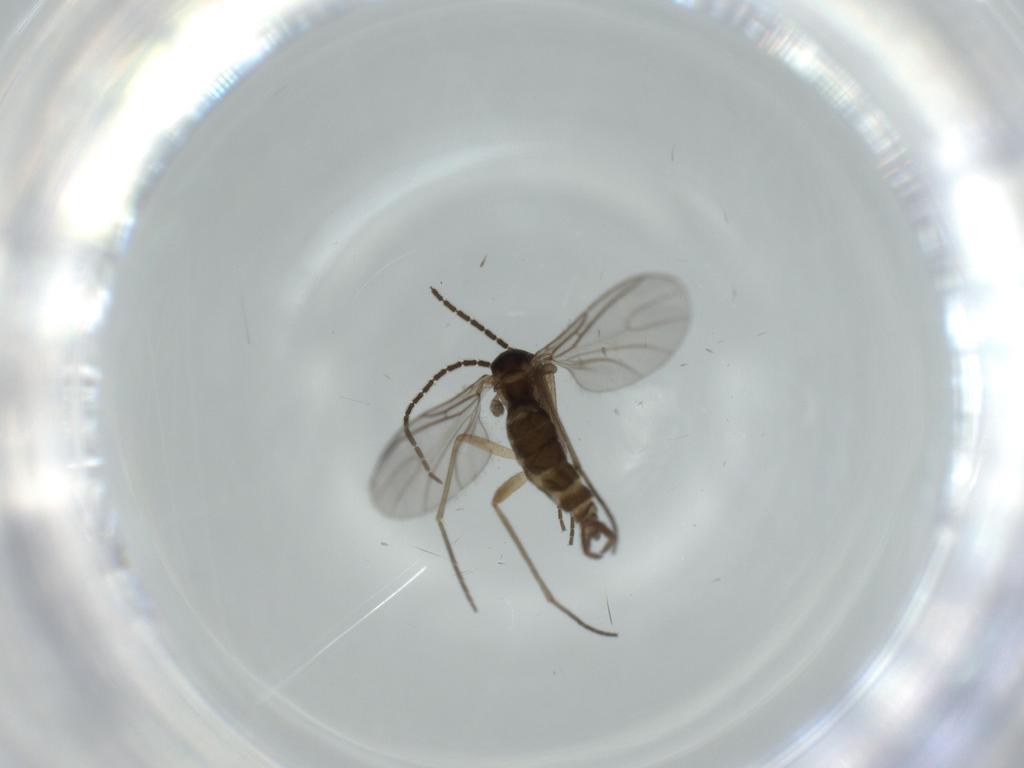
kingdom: Animalia
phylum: Arthropoda
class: Insecta
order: Diptera
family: Sciaridae
